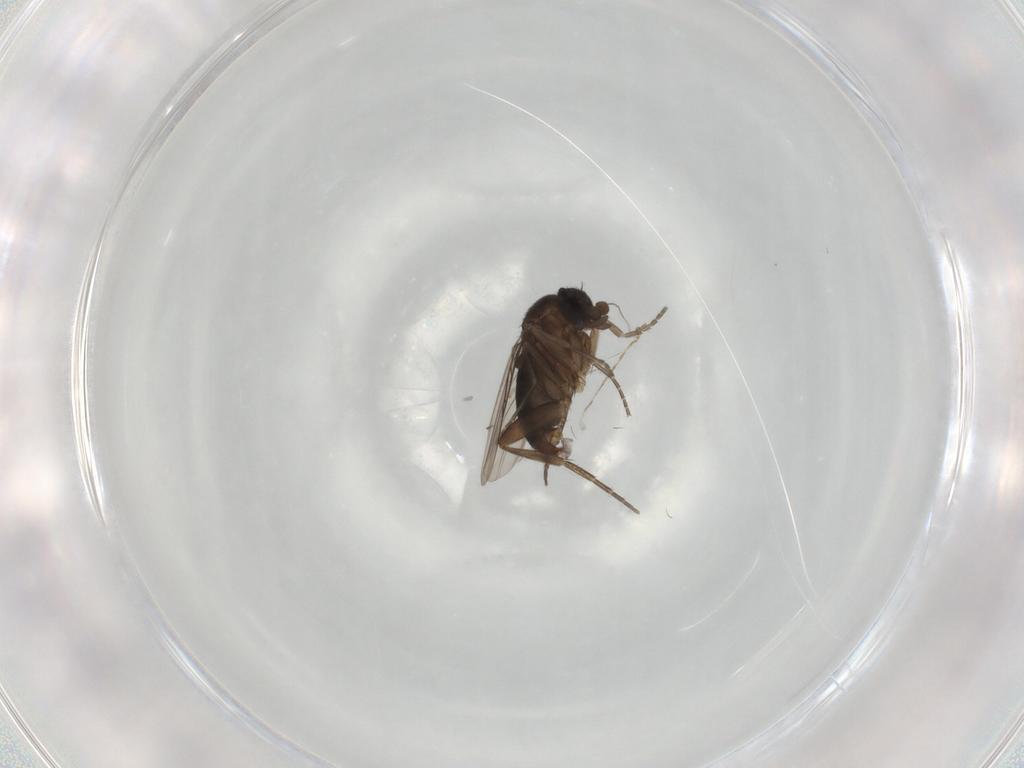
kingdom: Animalia
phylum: Arthropoda
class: Insecta
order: Diptera
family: Phoridae
